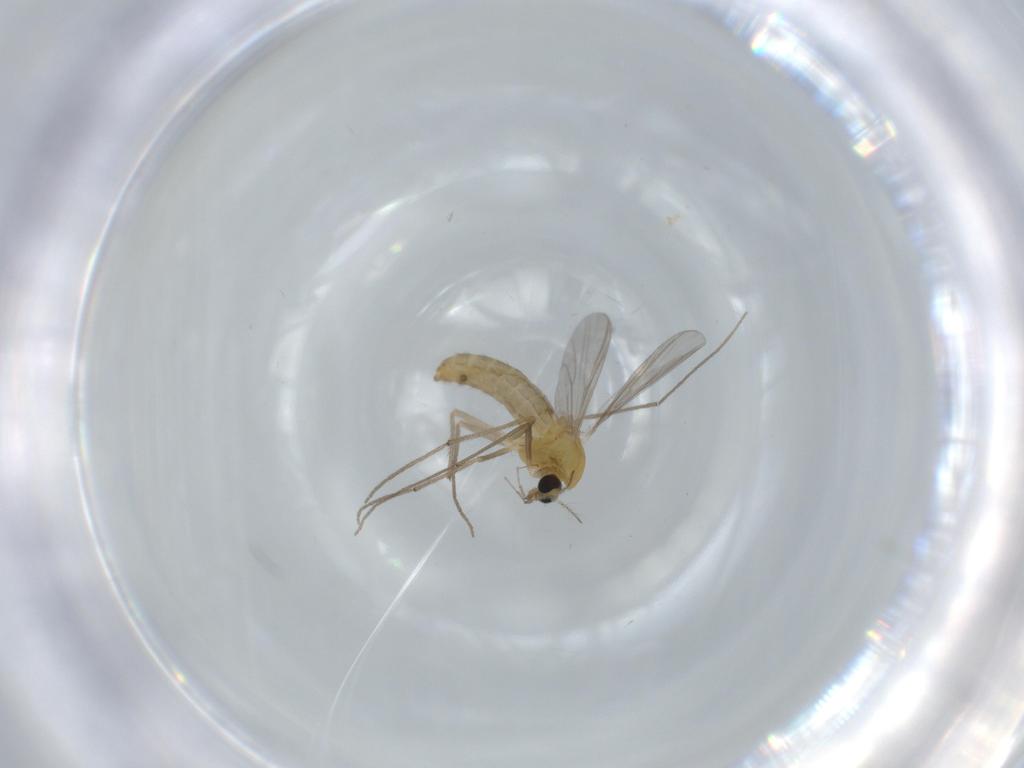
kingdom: Animalia
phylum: Arthropoda
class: Insecta
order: Diptera
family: Chironomidae
